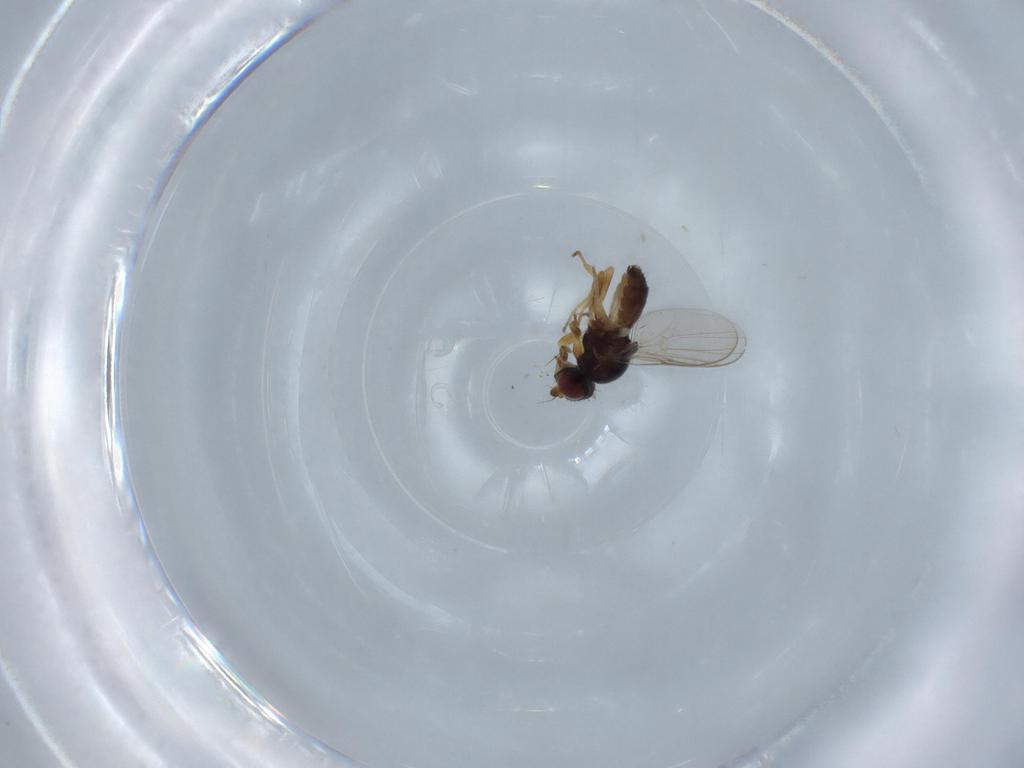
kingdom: Animalia
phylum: Arthropoda
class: Insecta
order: Diptera
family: Chloropidae
